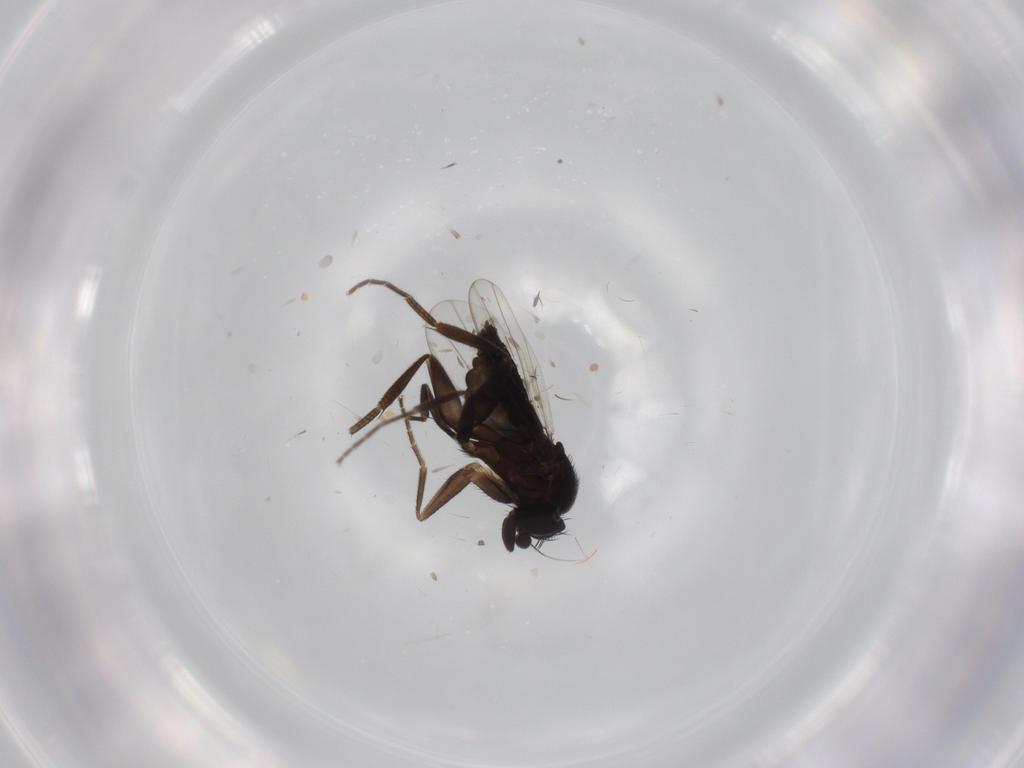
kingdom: Animalia
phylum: Arthropoda
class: Insecta
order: Diptera
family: Phoridae
